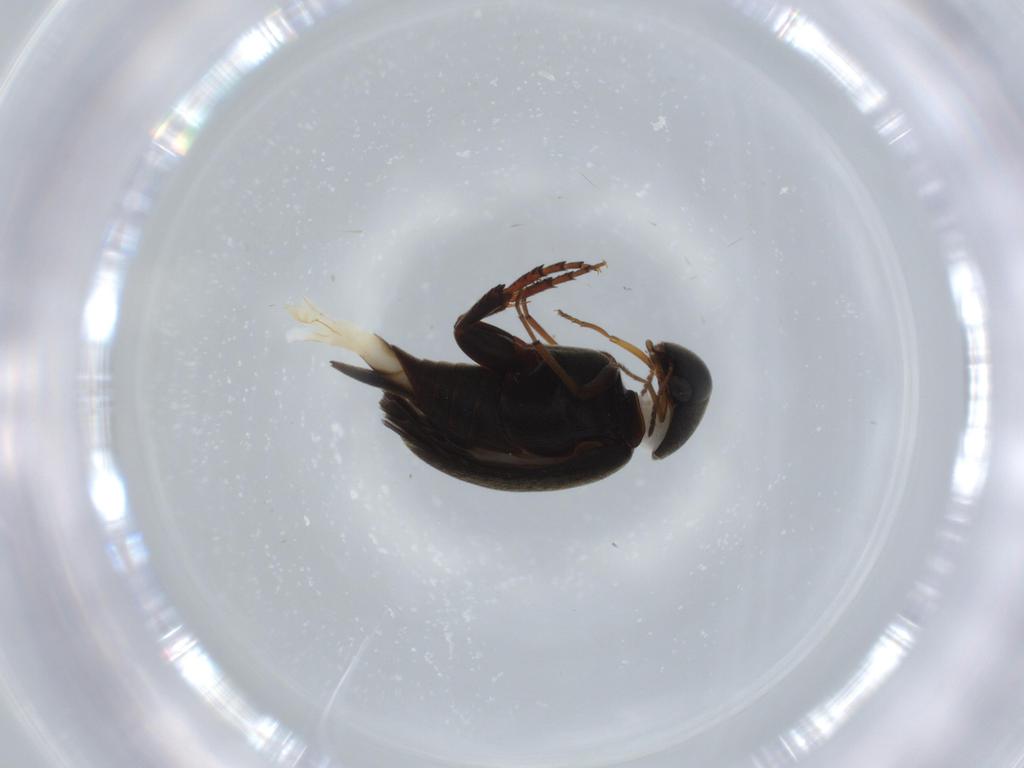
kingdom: Animalia
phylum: Arthropoda
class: Insecta
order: Coleoptera
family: Mordellidae
